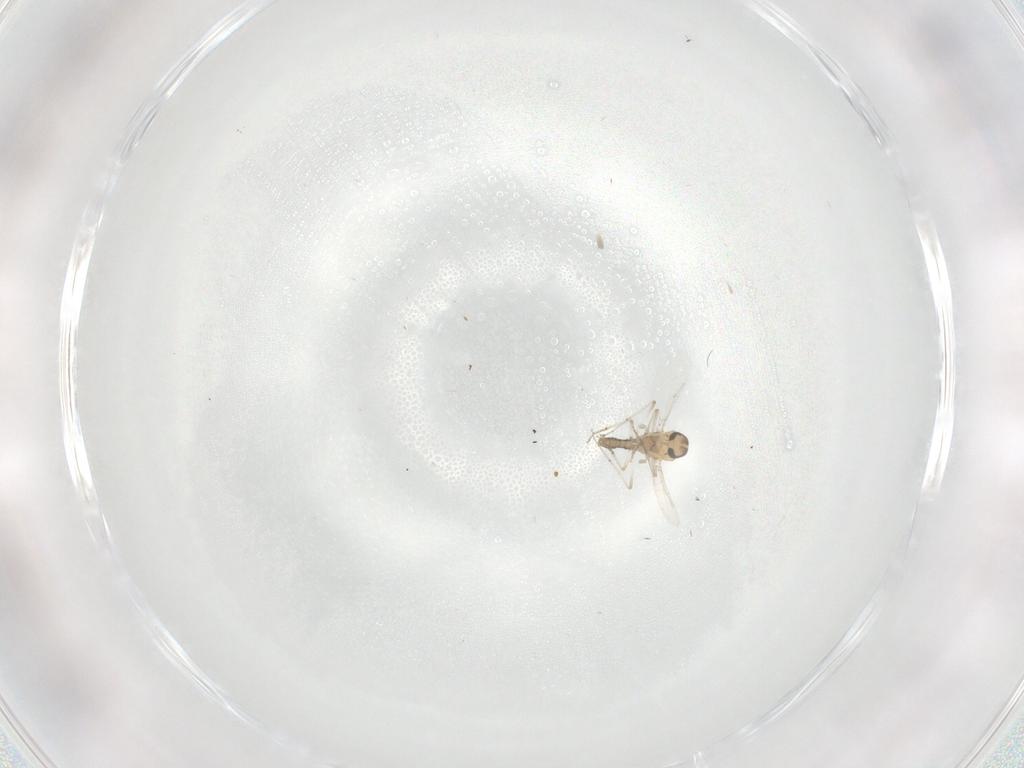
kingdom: Animalia
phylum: Arthropoda
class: Insecta
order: Diptera
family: Ceratopogonidae
